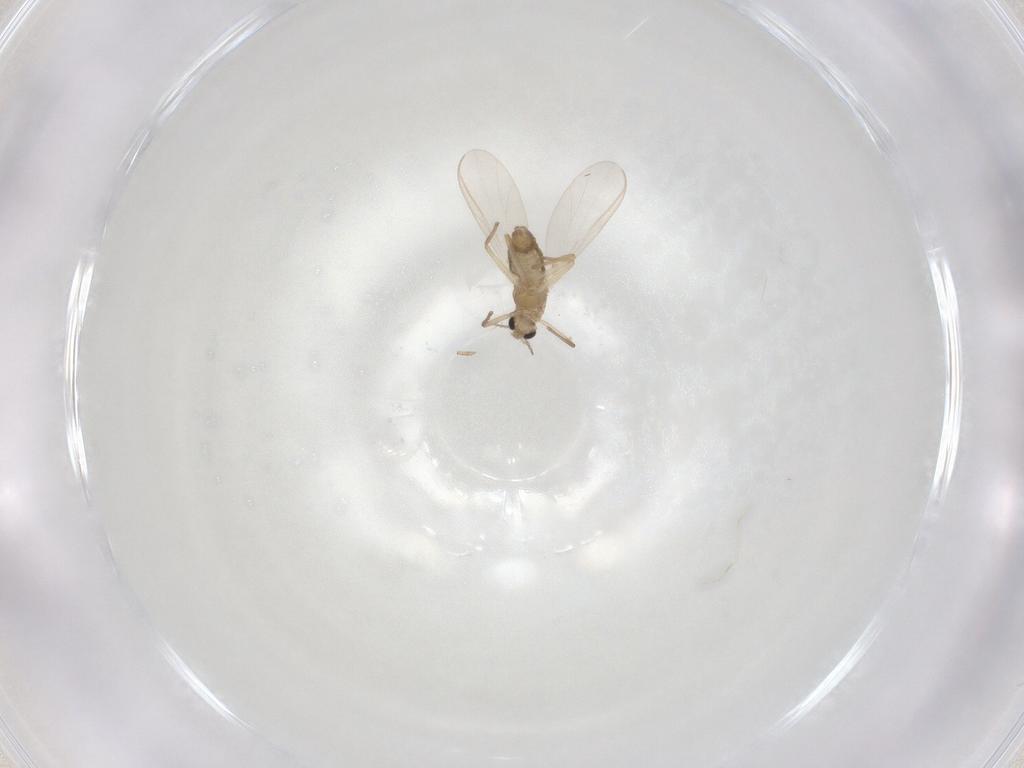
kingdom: Animalia
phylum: Arthropoda
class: Insecta
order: Diptera
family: Chironomidae
